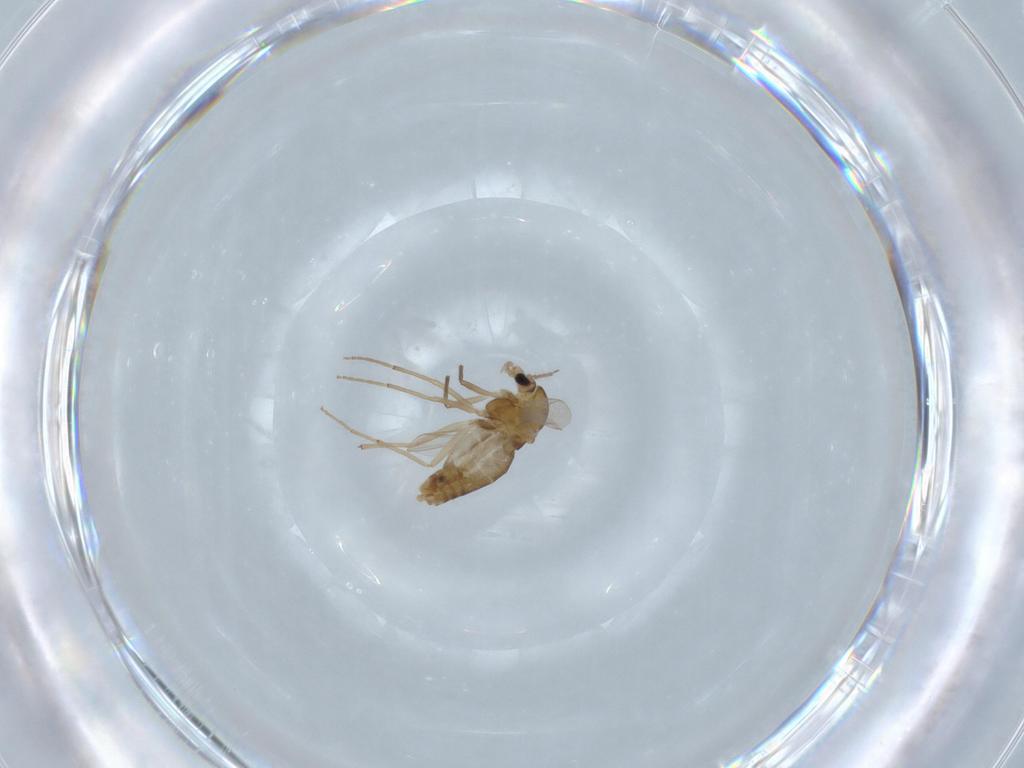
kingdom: Animalia
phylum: Arthropoda
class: Insecta
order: Diptera
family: Chironomidae
